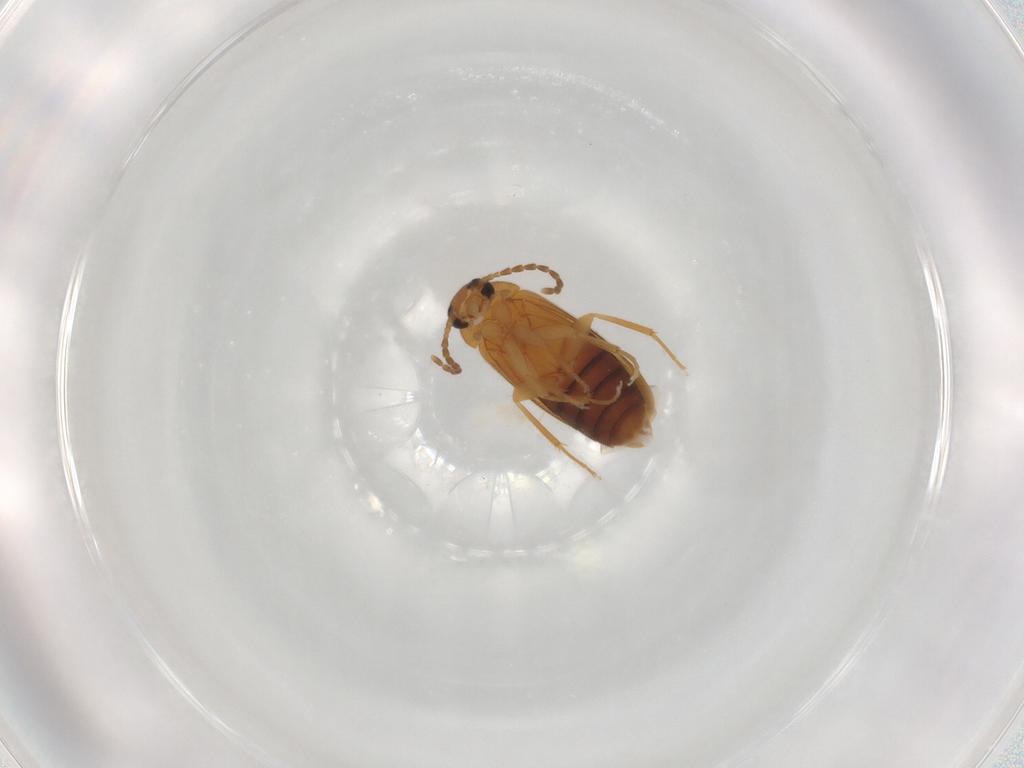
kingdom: Animalia
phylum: Arthropoda
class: Insecta
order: Coleoptera
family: Scraptiidae
